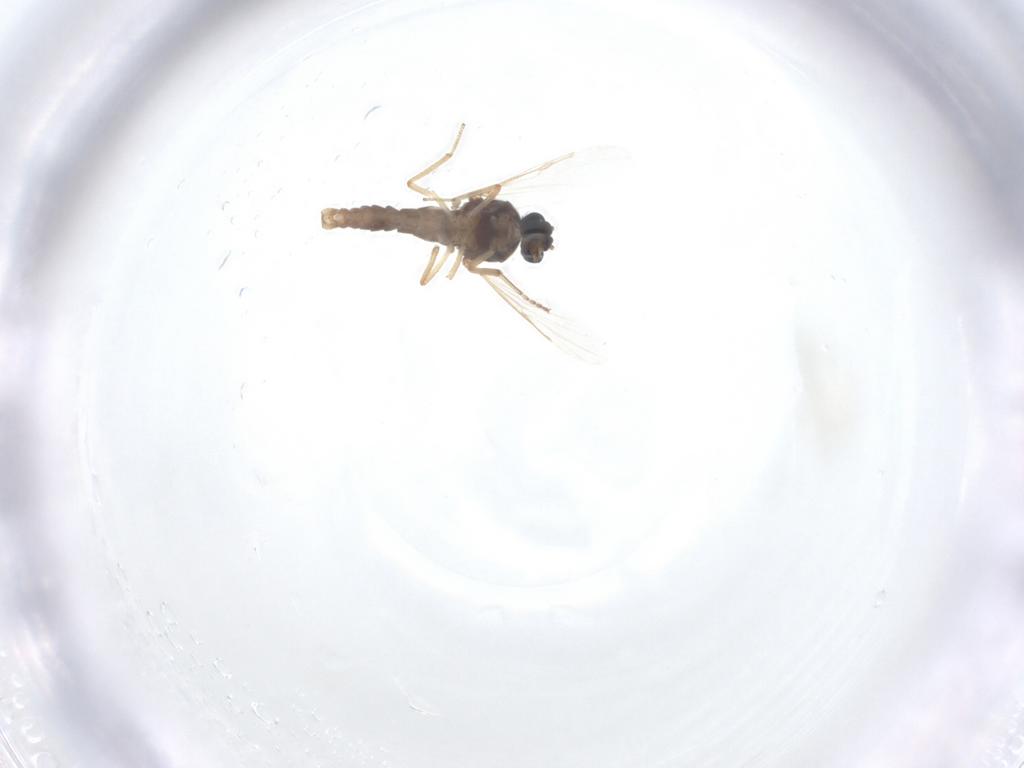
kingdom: Animalia
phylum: Arthropoda
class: Insecta
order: Diptera
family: Ceratopogonidae
